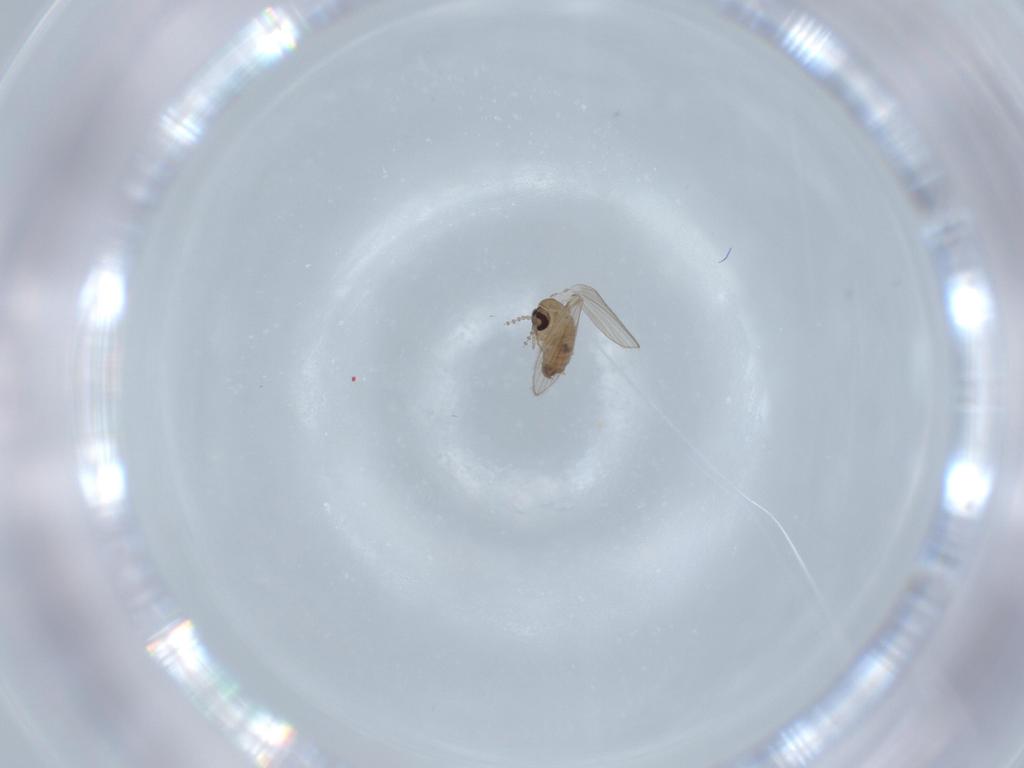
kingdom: Animalia
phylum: Arthropoda
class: Insecta
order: Diptera
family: Psychodidae
